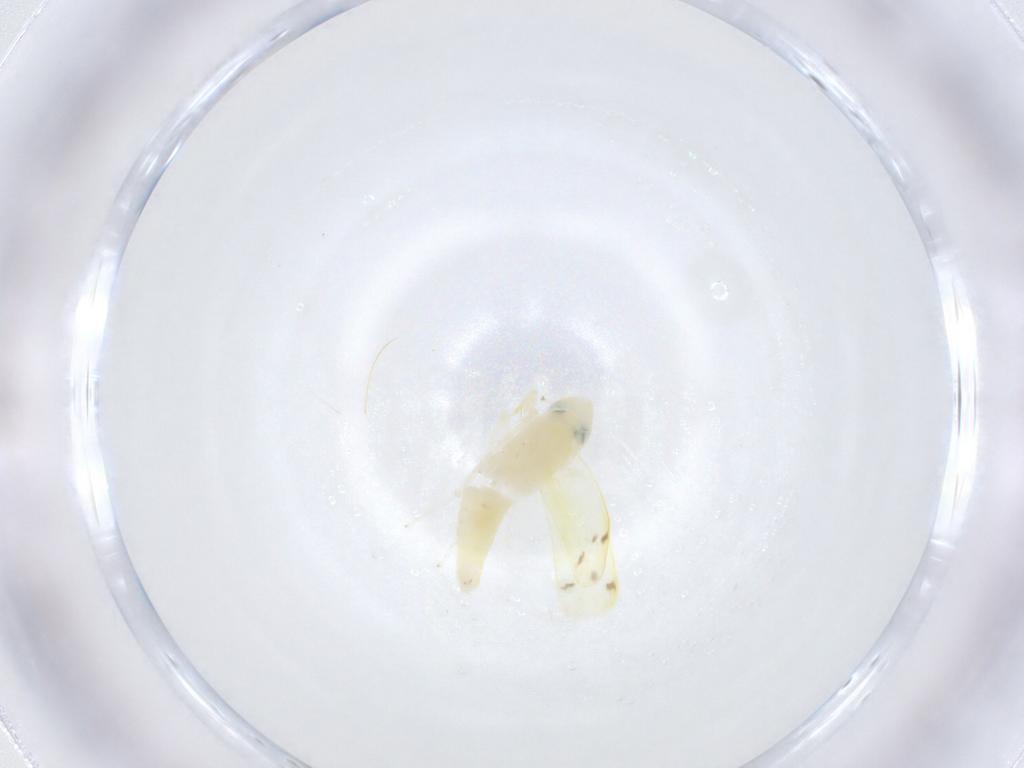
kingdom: Animalia
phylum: Arthropoda
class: Insecta
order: Hemiptera
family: Cicadellidae
